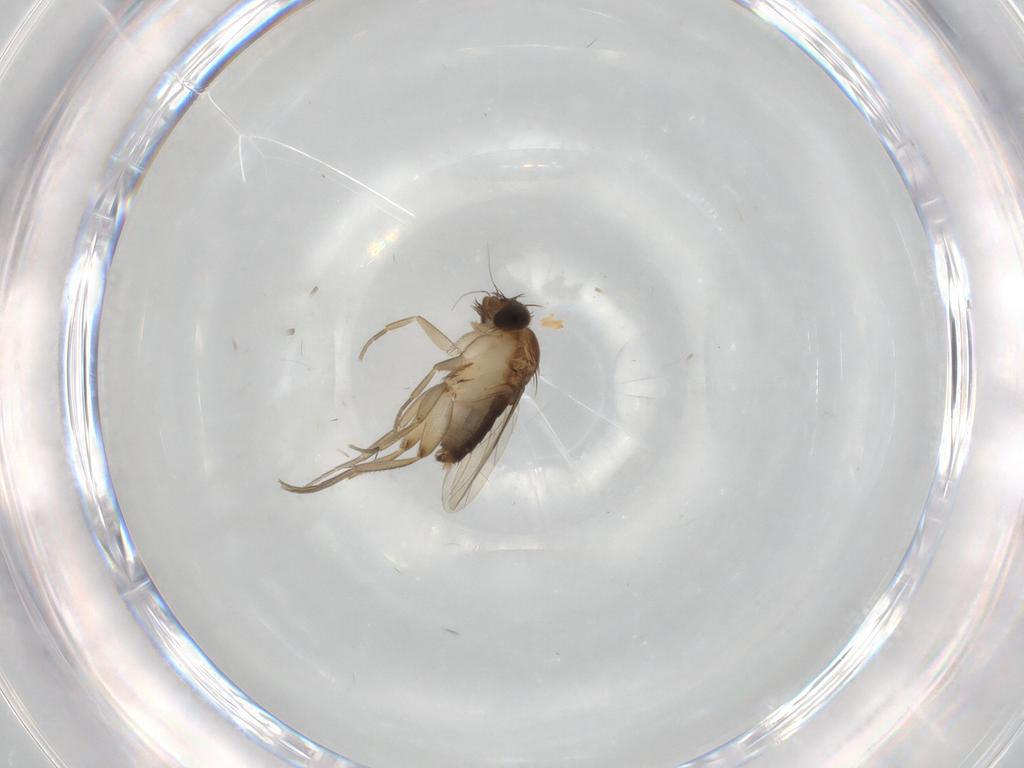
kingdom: Animalia
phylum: Arthropoda
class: Insecta
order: Diptera
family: Phoridae
